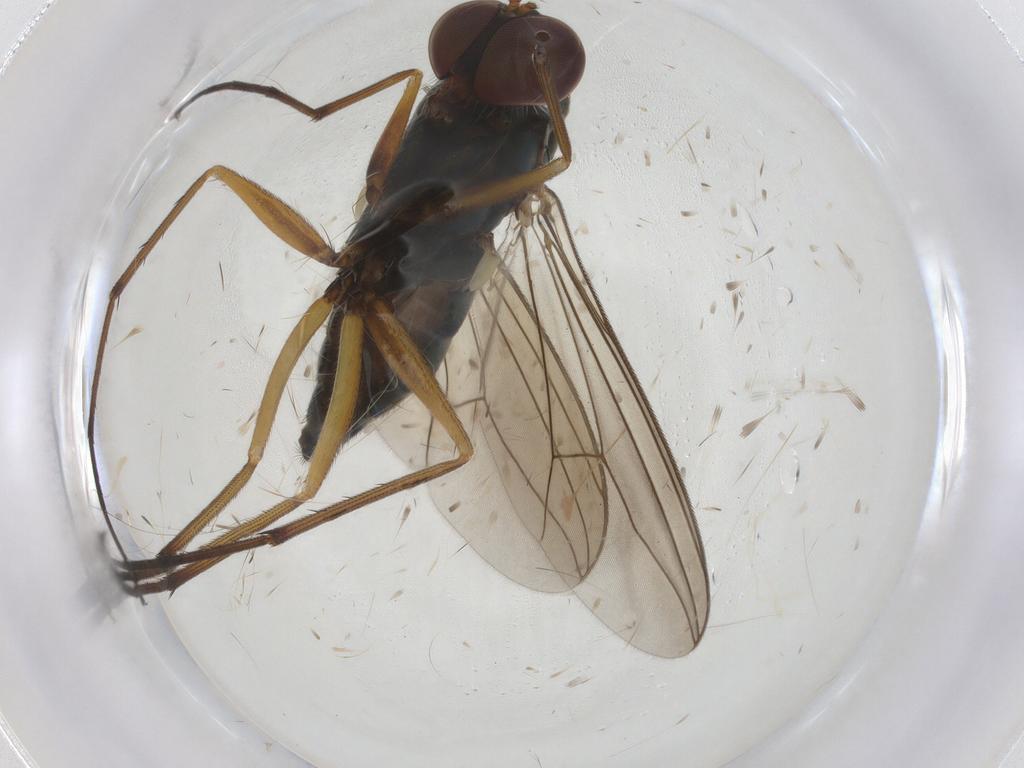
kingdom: Animalia
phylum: Arthropoda
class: Insecta
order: Diptera
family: Dolichopodidae
